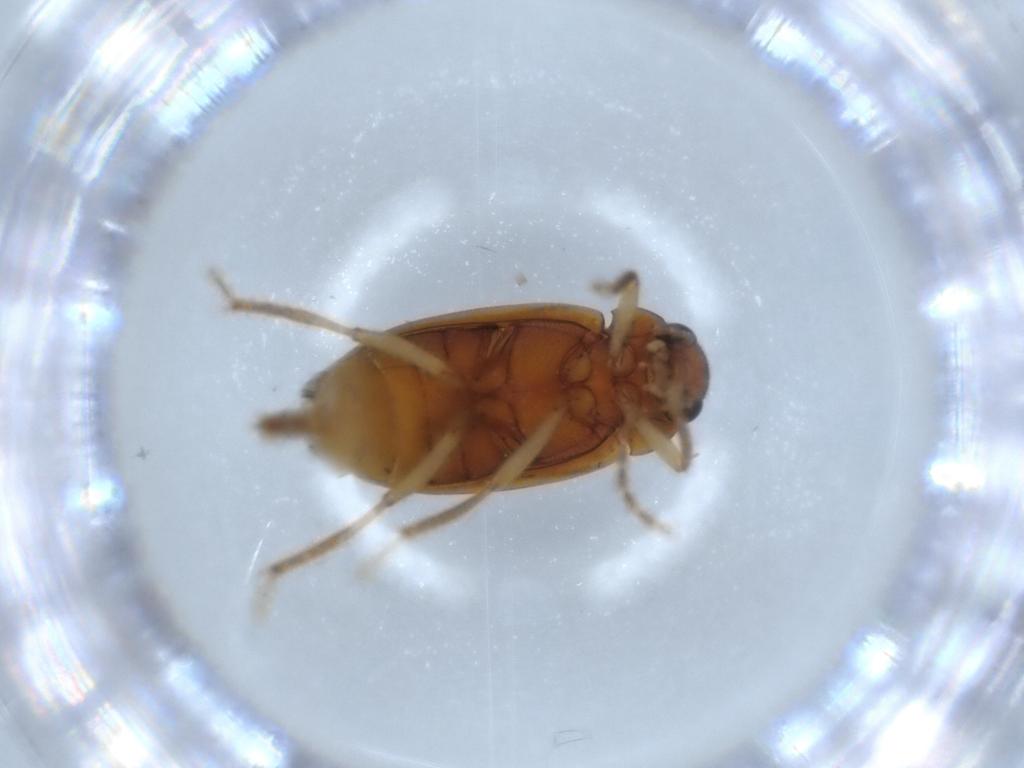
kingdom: Animalia
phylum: Arthropoda
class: Insecta
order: Coleoptera
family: Ptilodactylidae
